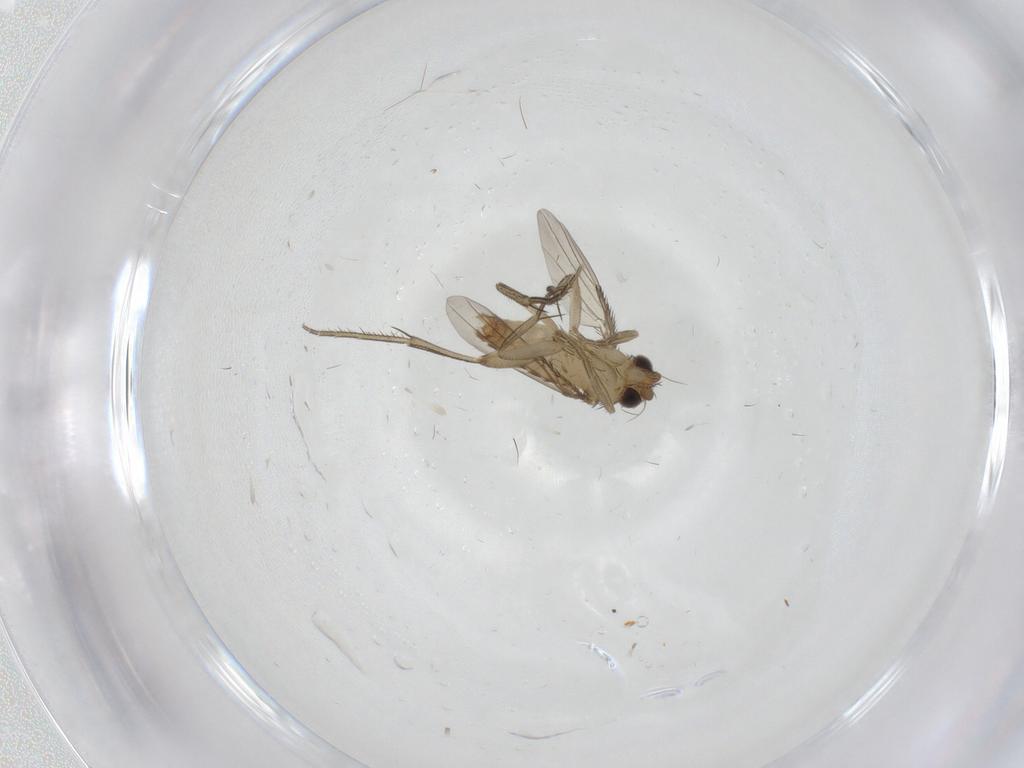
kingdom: Animalia
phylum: Arthropoda
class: Insecta
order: Diptera
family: Phoridae
